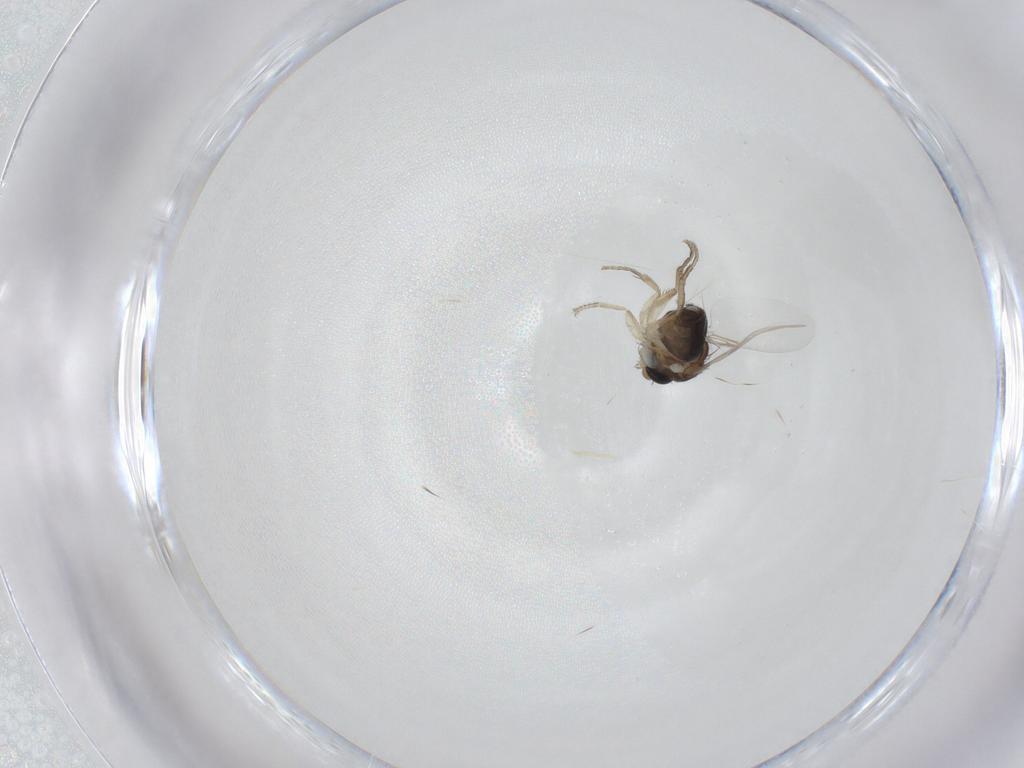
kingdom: Animalia
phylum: Arthropoda
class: Insecta
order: Diptera
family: Phoridae
